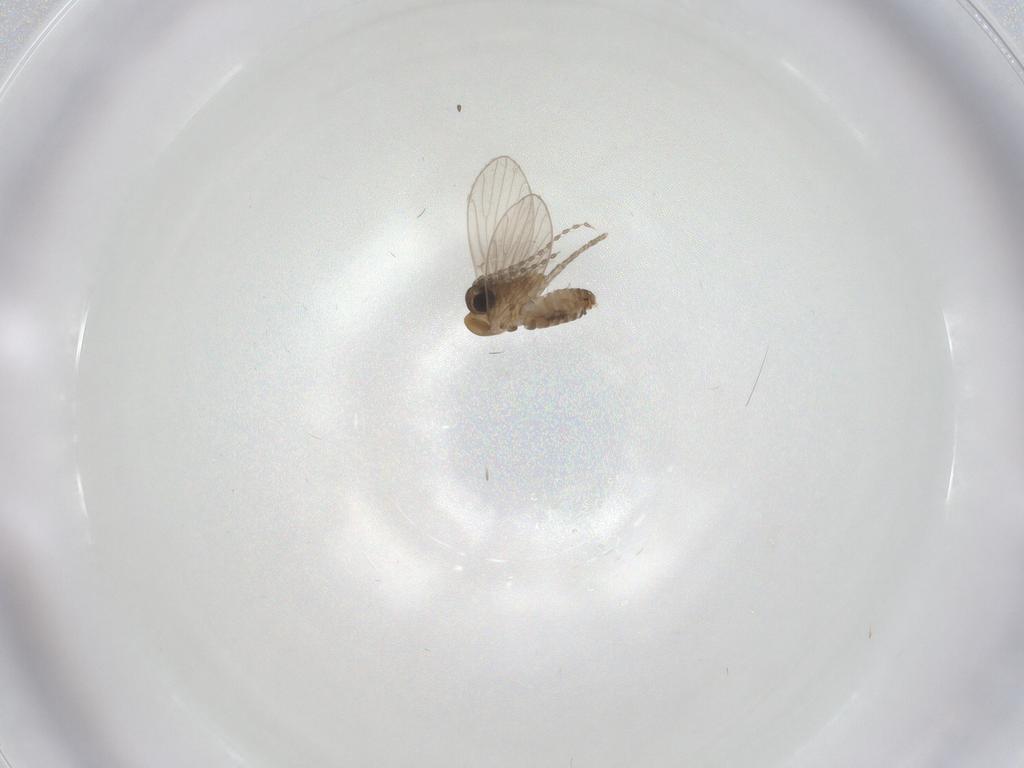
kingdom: Animalia
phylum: Arthropoda
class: Insecta
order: Diptera
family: Psychodidae
